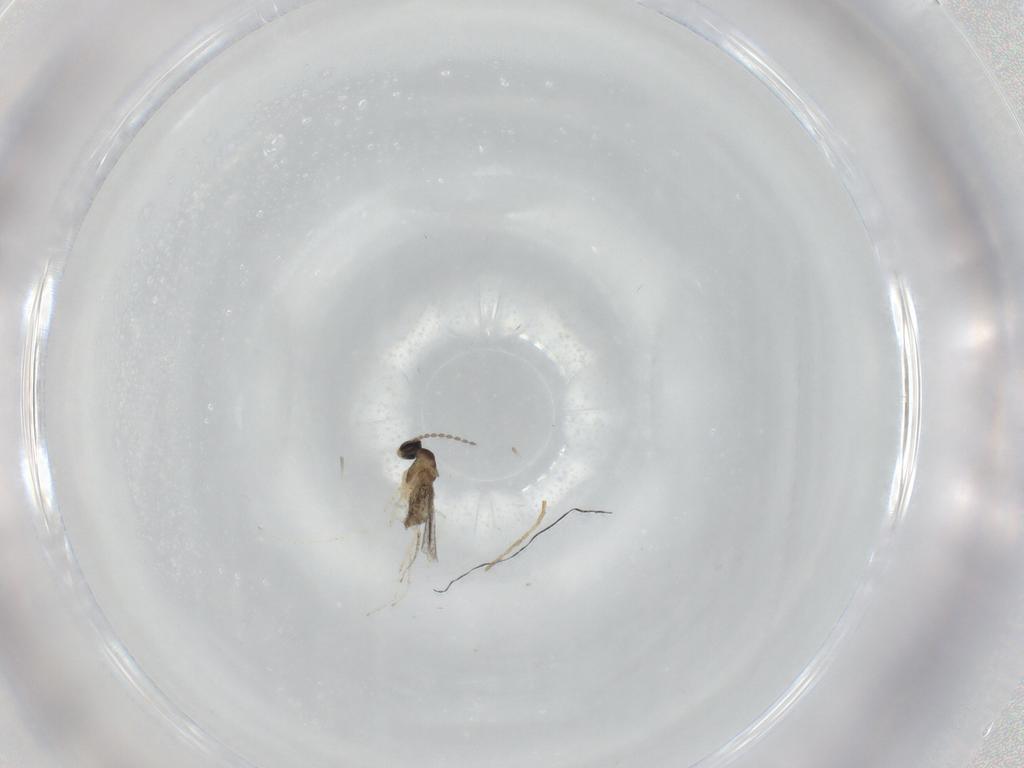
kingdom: Animalia
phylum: Arthropoda
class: Insecta
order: Diptera
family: Cecidomyiidae
